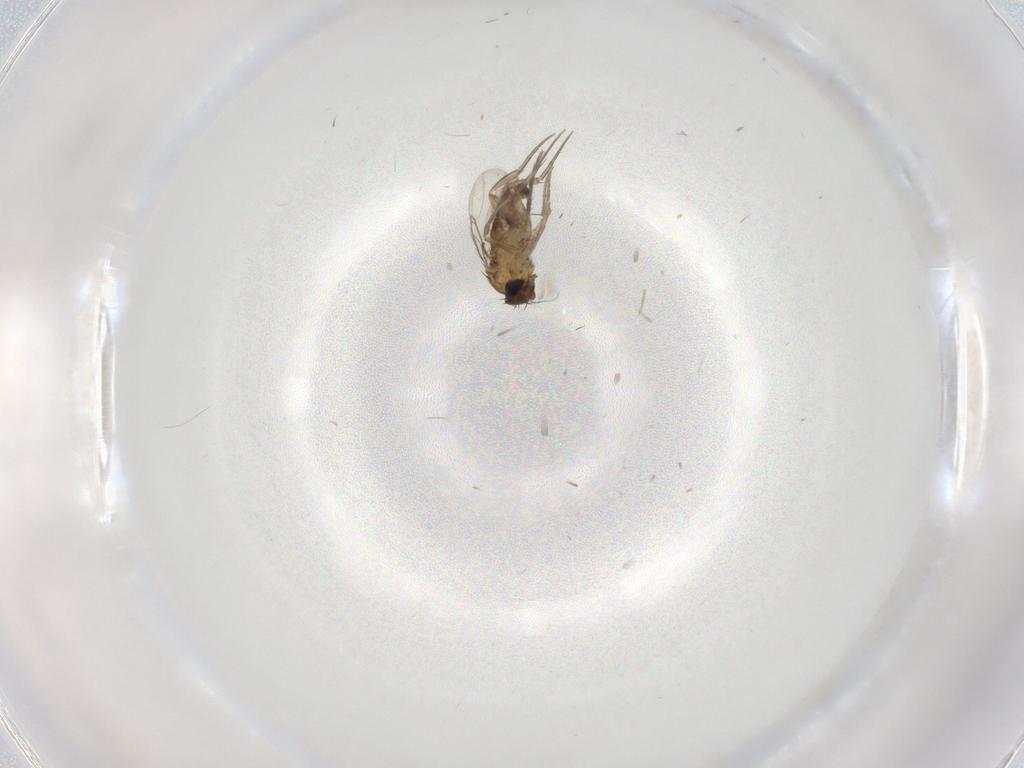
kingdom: Animalia
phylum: Arthropoda
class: Insecta
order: Diptera
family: Phoridae
